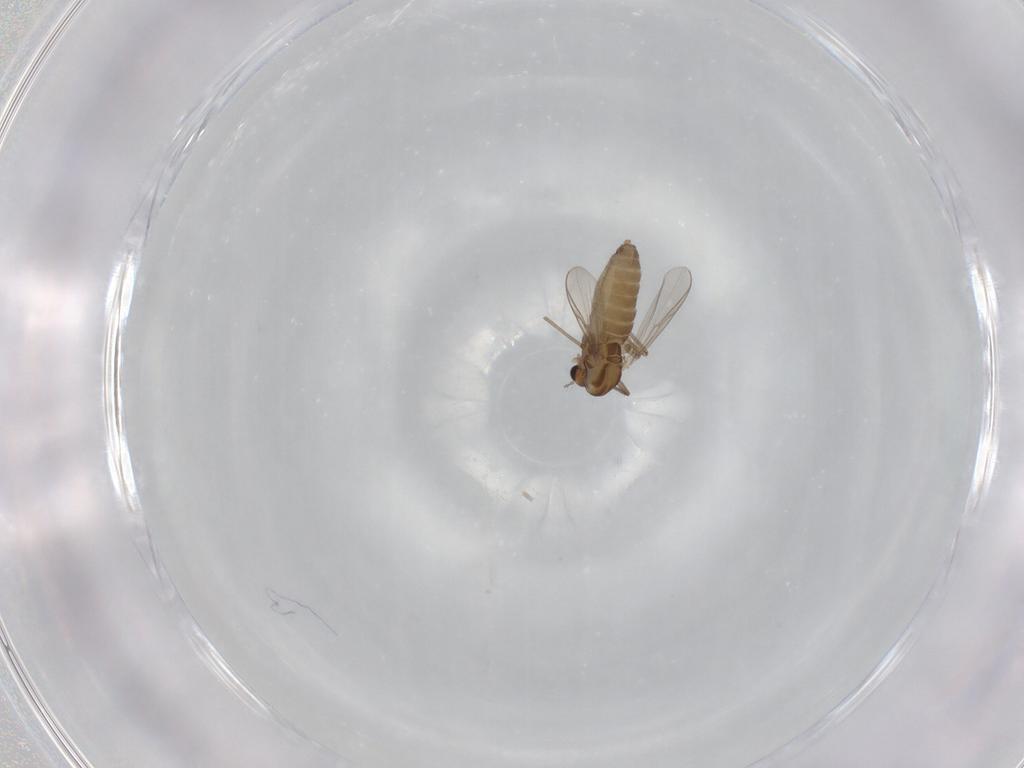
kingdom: Animalia
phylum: Arthropoda
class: Insecta
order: Diptera
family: Chironomidae
